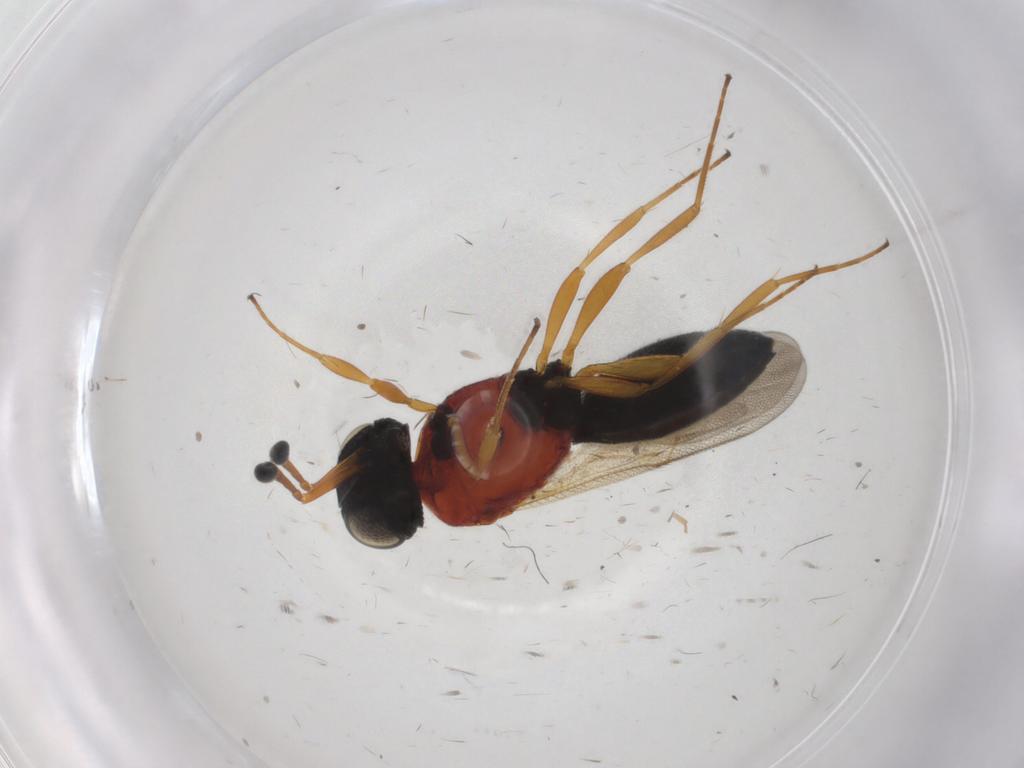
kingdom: Animalia
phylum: Arthropoda
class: Insecta
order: Hymenoptera
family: Scelionidae
